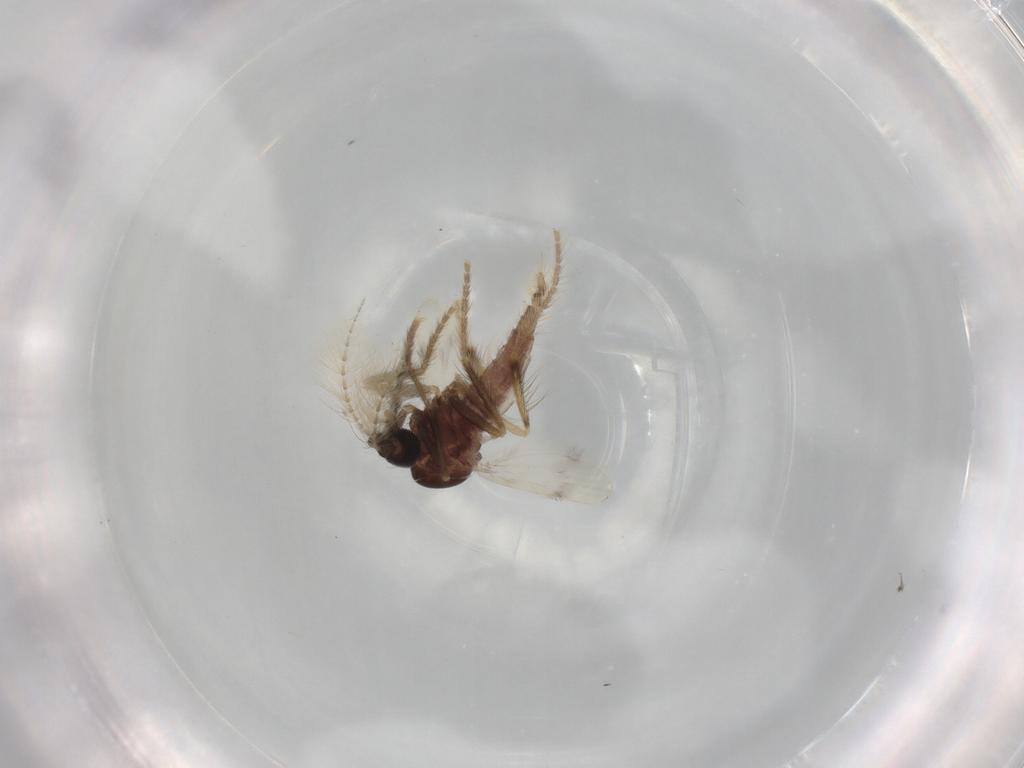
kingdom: Animalia
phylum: Arthropoda
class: Insecta
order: Diptera
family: Corethrellidae
